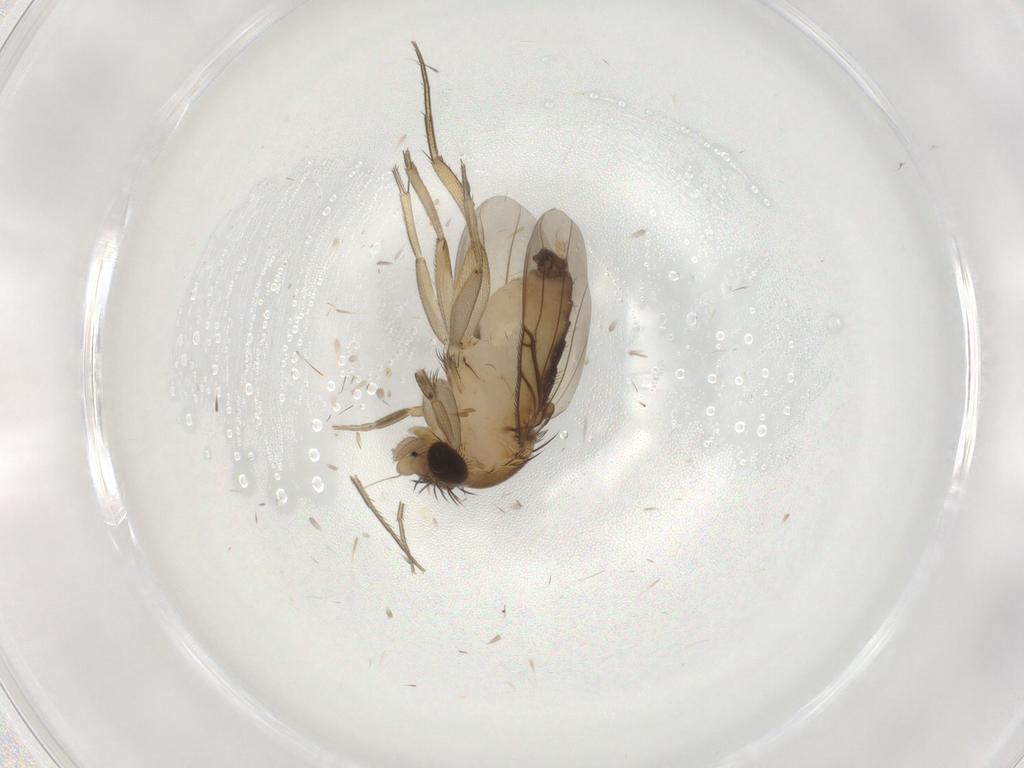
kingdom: Animalia
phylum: Arthropoda
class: Insecta
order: Diptera
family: Phoridae
